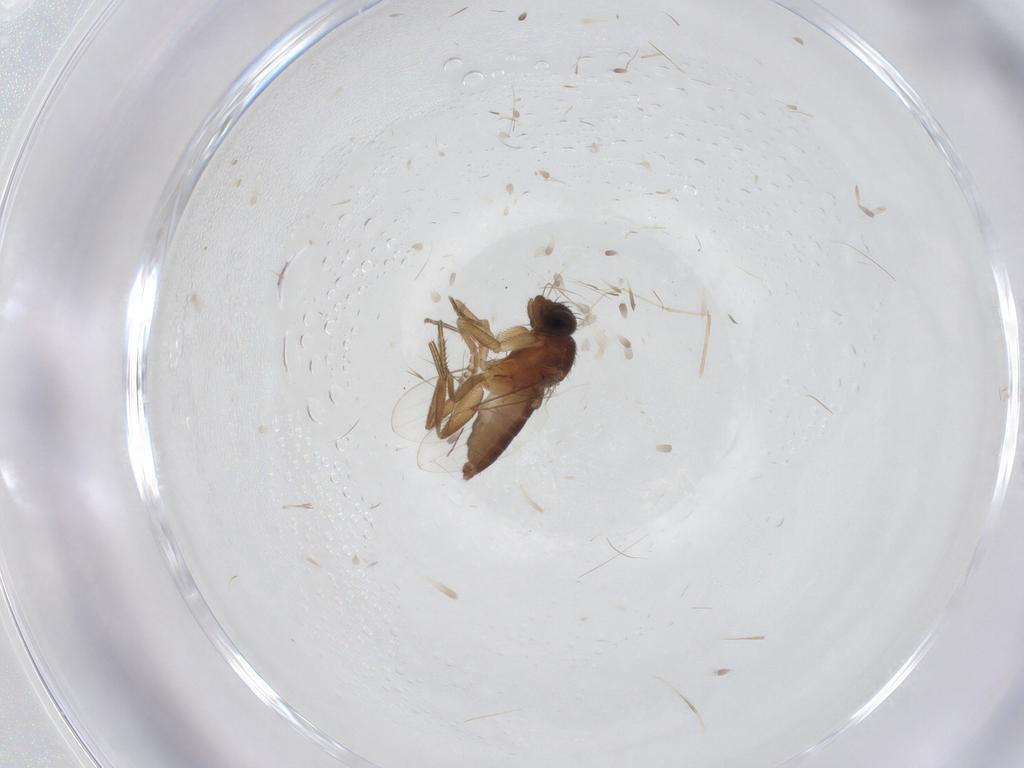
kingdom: Animalia
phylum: Arthropoda
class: Insecta
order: Diptera
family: Phoridae
